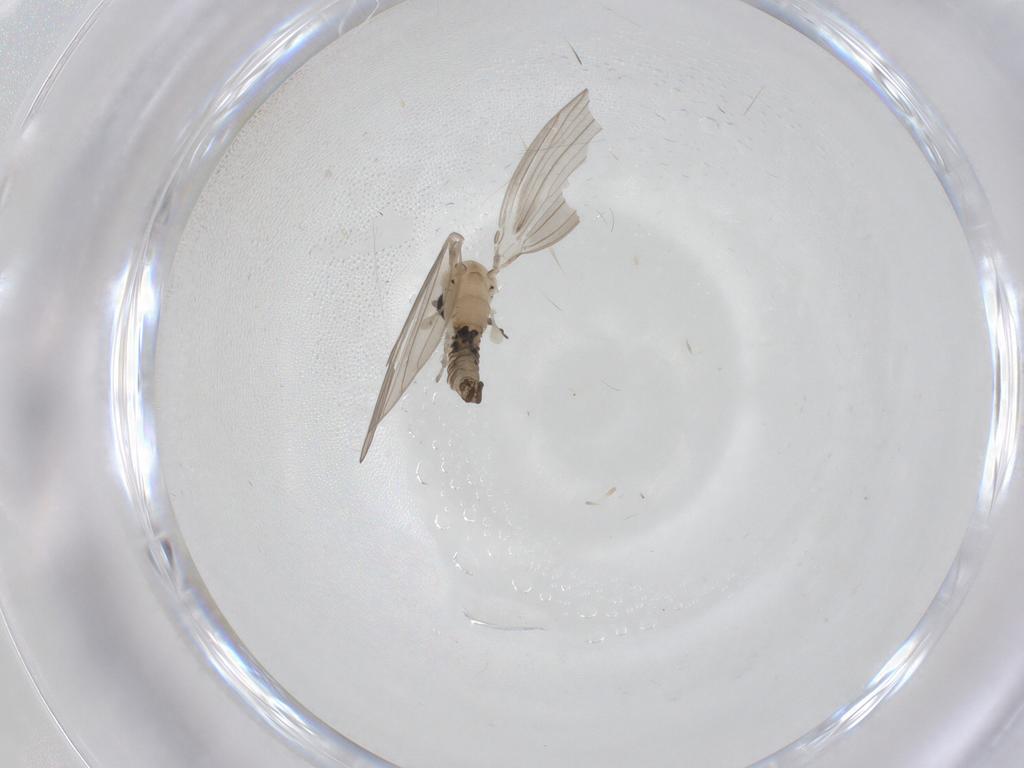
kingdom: Animalia
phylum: Arthropoda
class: Insecta
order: Diptera
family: Psychodidae
